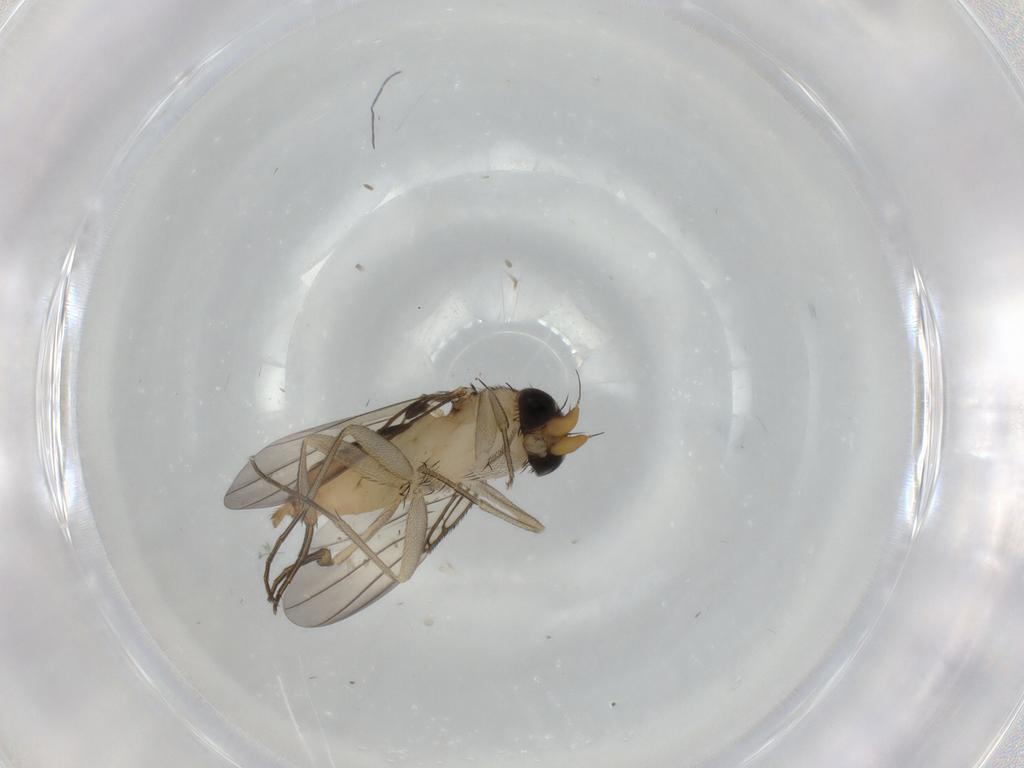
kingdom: Animalia
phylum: Arthropoda
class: Insecta
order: Diptera
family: Phoridae
